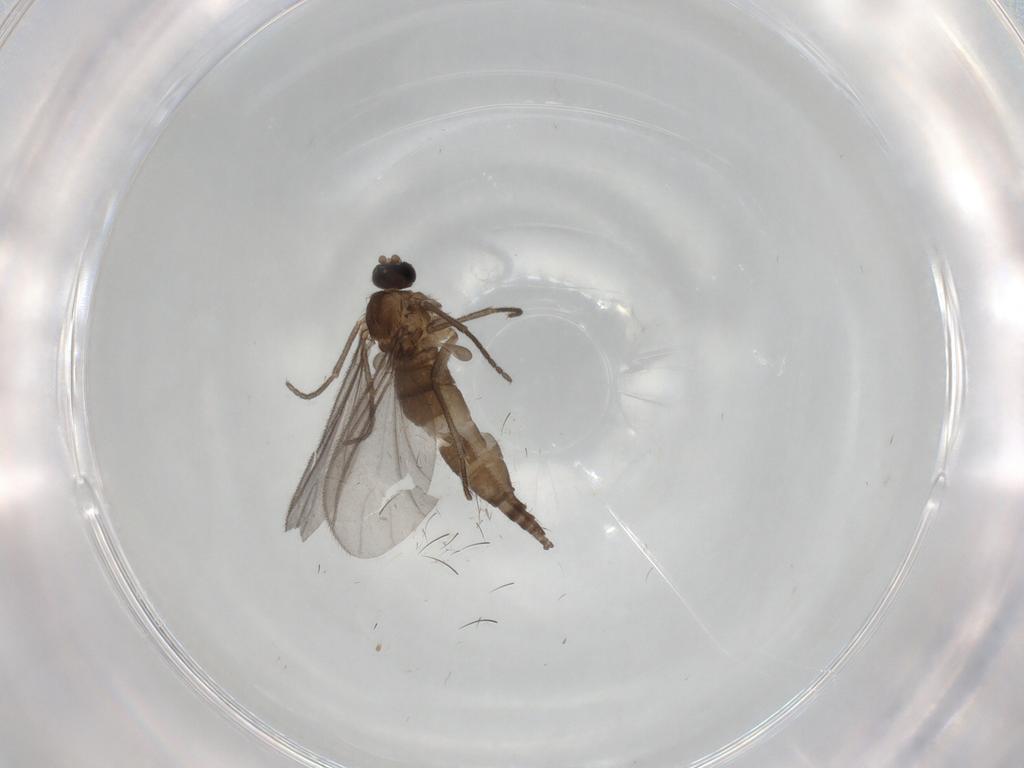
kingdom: Animalia
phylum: Arthropoda
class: Insecta
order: Diptera
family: Sciaridae
